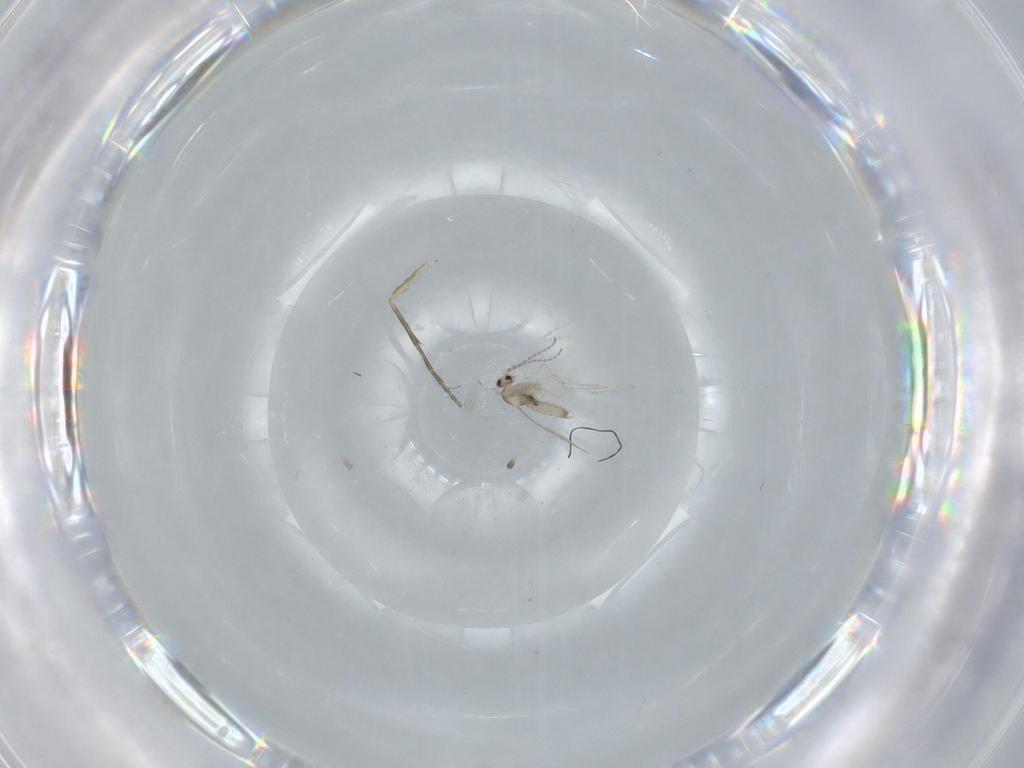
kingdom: Animalia
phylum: Arthropoda
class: Insecta
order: Diptera
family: Cecidomyiidae
